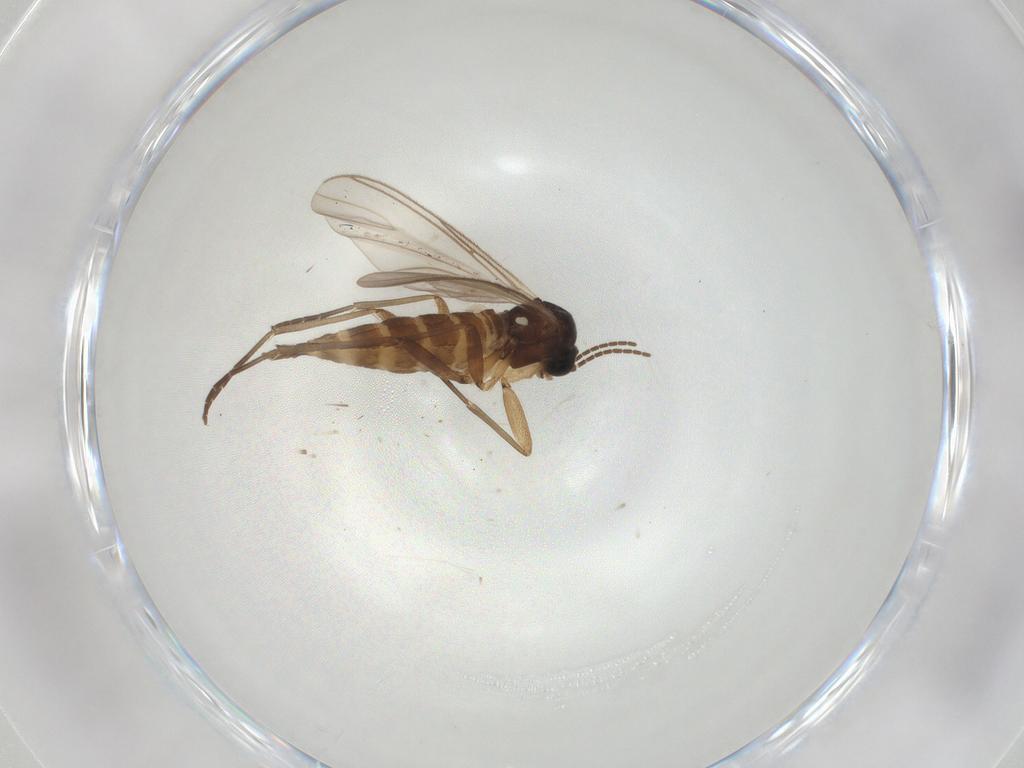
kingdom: Animalia
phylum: Arthropoda
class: Insecta
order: Diptera
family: Sciaridae
